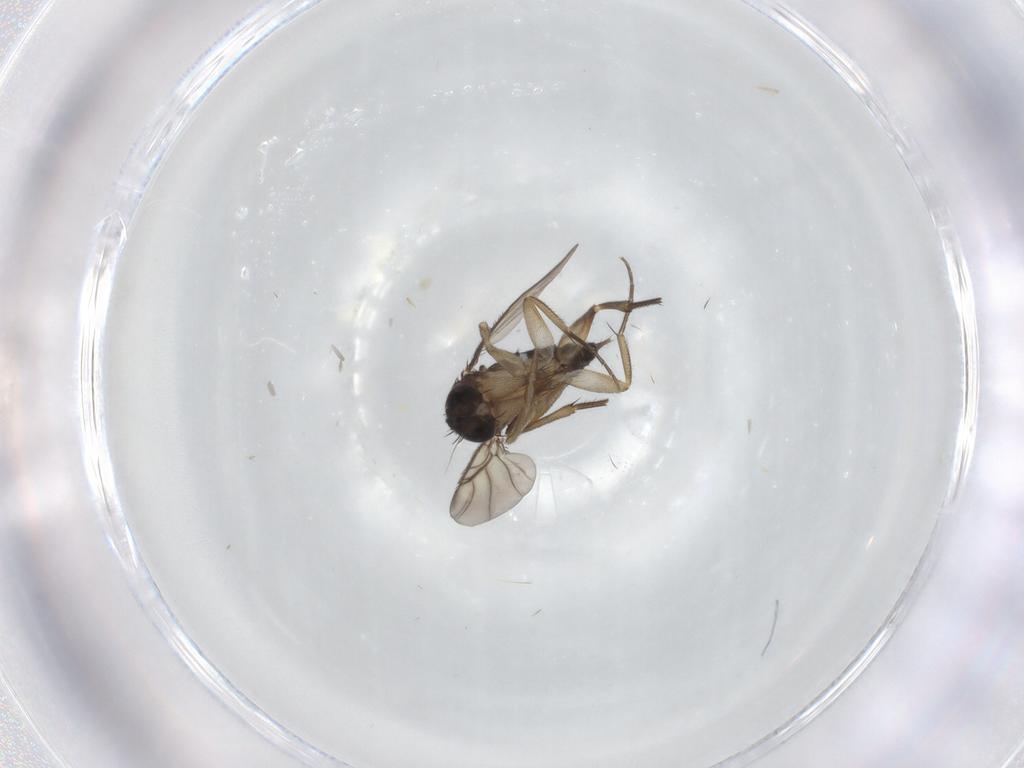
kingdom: Animalia
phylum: Arthropoda
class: Insecta
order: Diptera
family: Phoridae
